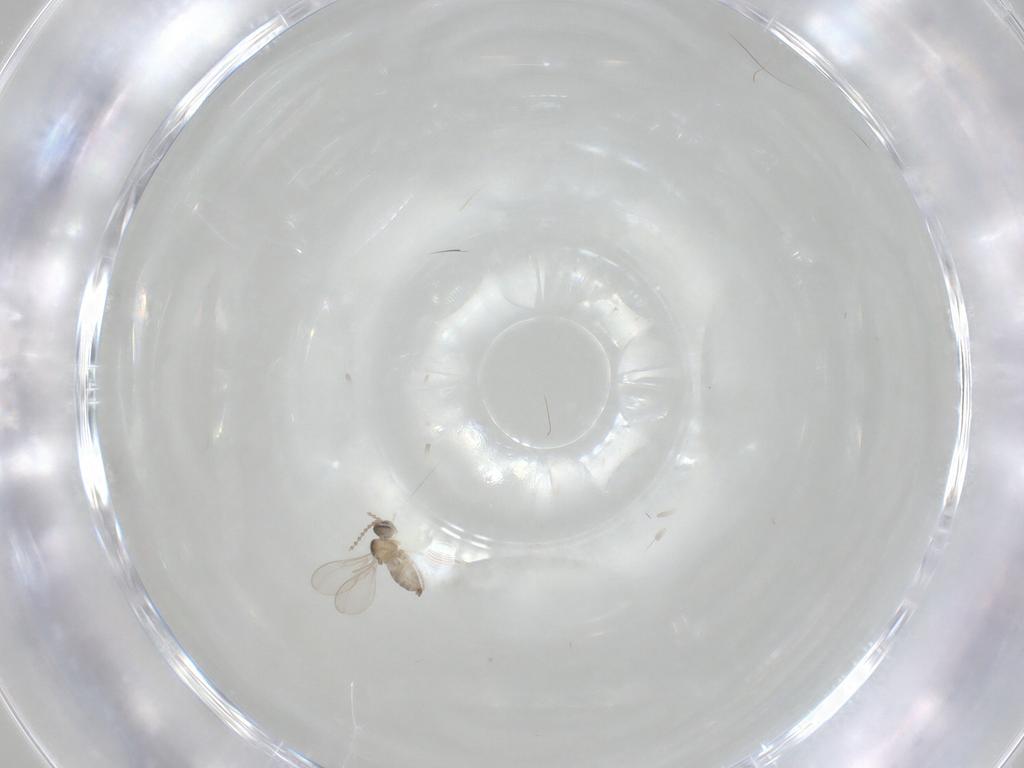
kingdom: Animalia
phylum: Arthropoda
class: Insecta
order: Diptera
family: Cecidomyiidae
